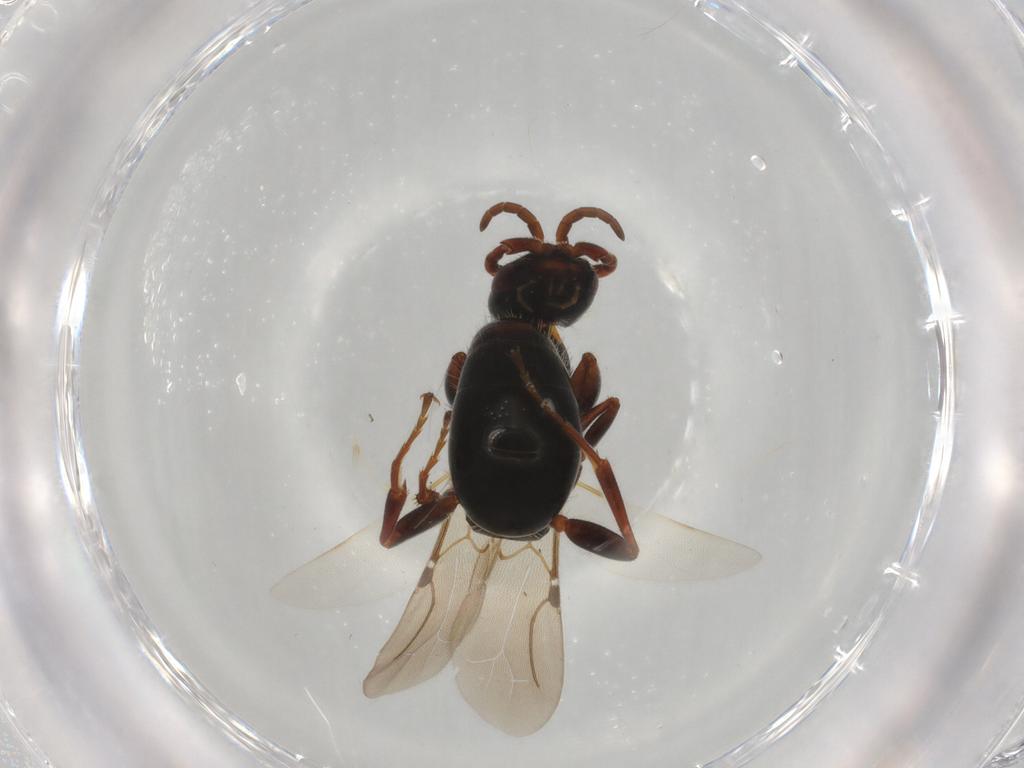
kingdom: Animalia
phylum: Arthropoda
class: Insecta
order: Hymenoptera
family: Bethylidae
